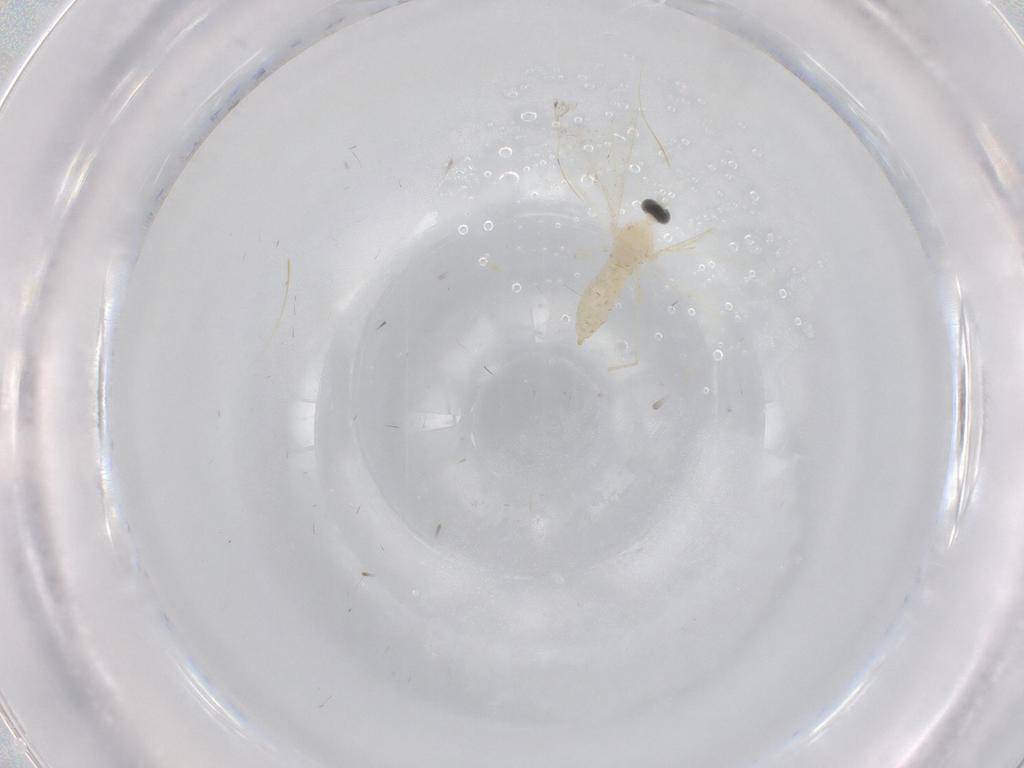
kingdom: Animalia
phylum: Arthropoda
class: Insecta
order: Diptera
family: Cecidomyiidae
